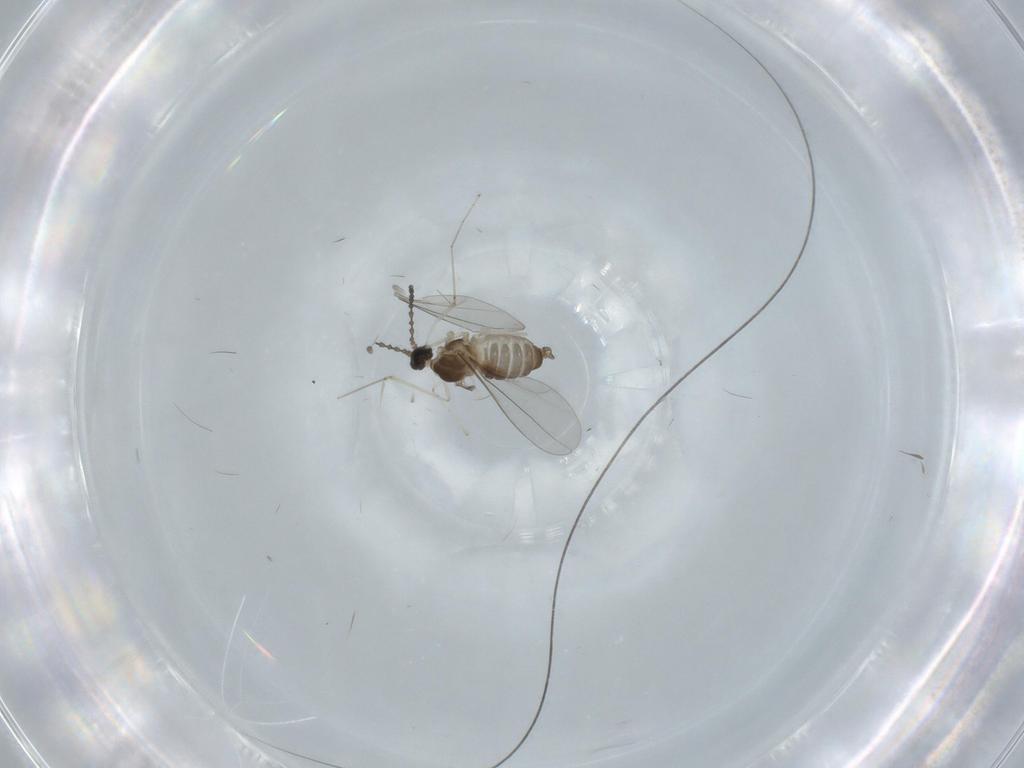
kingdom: Animalia
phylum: Arthropoda
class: Insecta
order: Diptera
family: Cecidomyiidae
